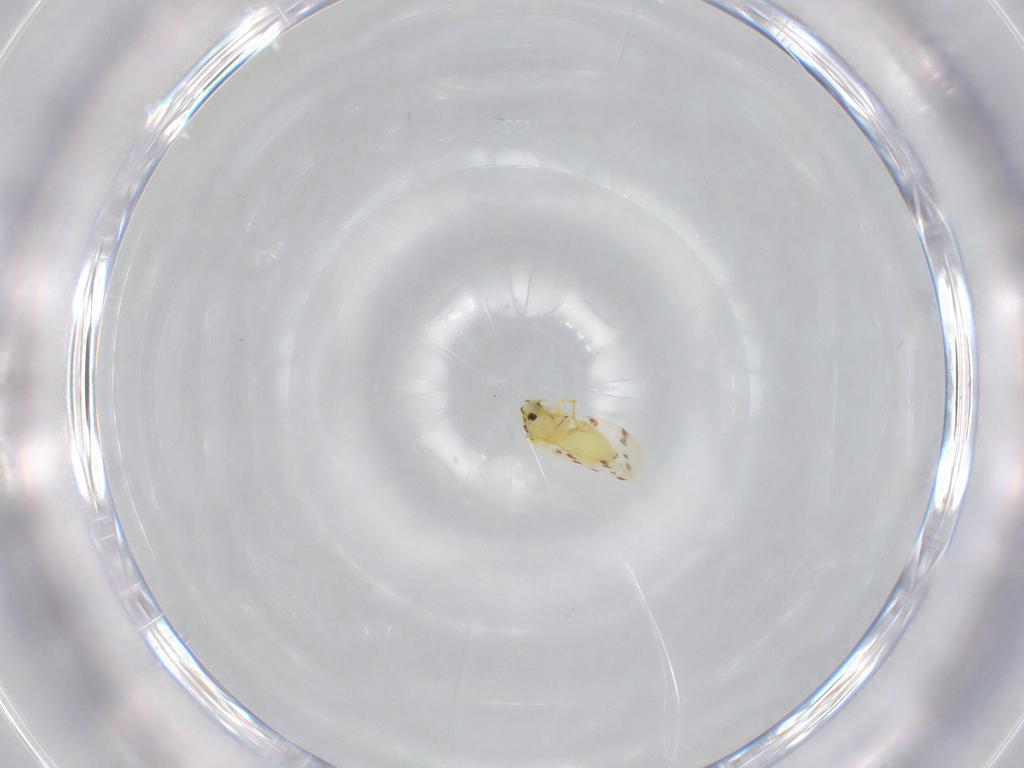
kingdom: Animalia
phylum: Arthropoda
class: Insecta
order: Hemiptera
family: Aleyrodidae
